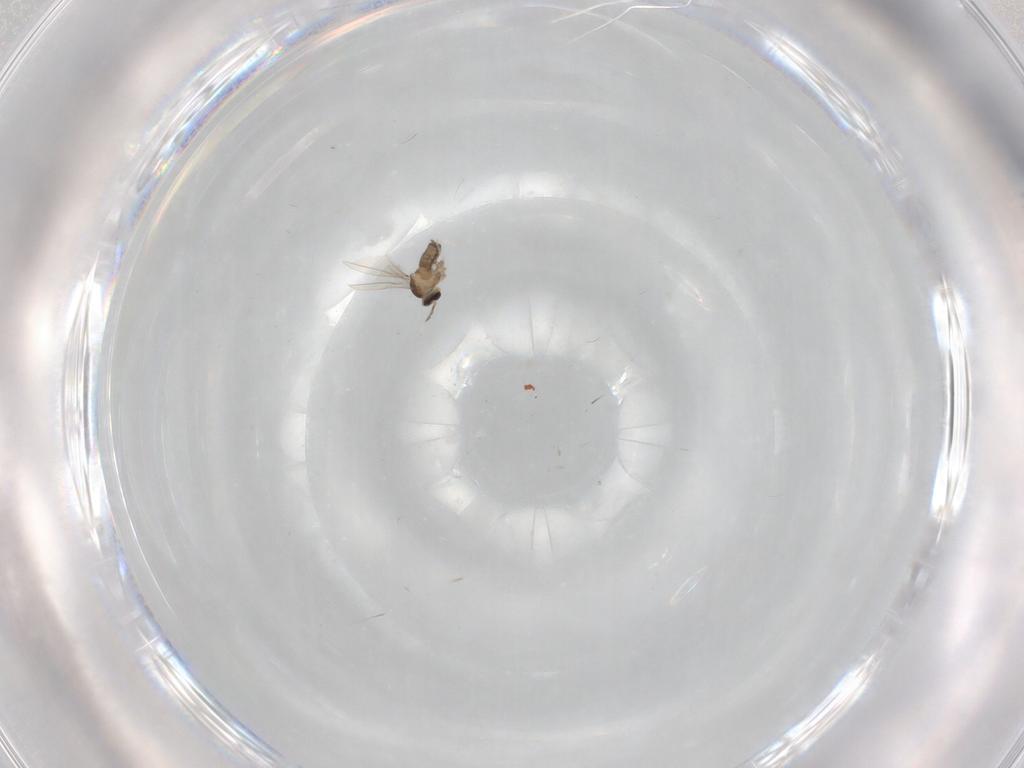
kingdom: Animalia
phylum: Arthropoda
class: Insecta
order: Diptera
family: Cecidomyiidae
